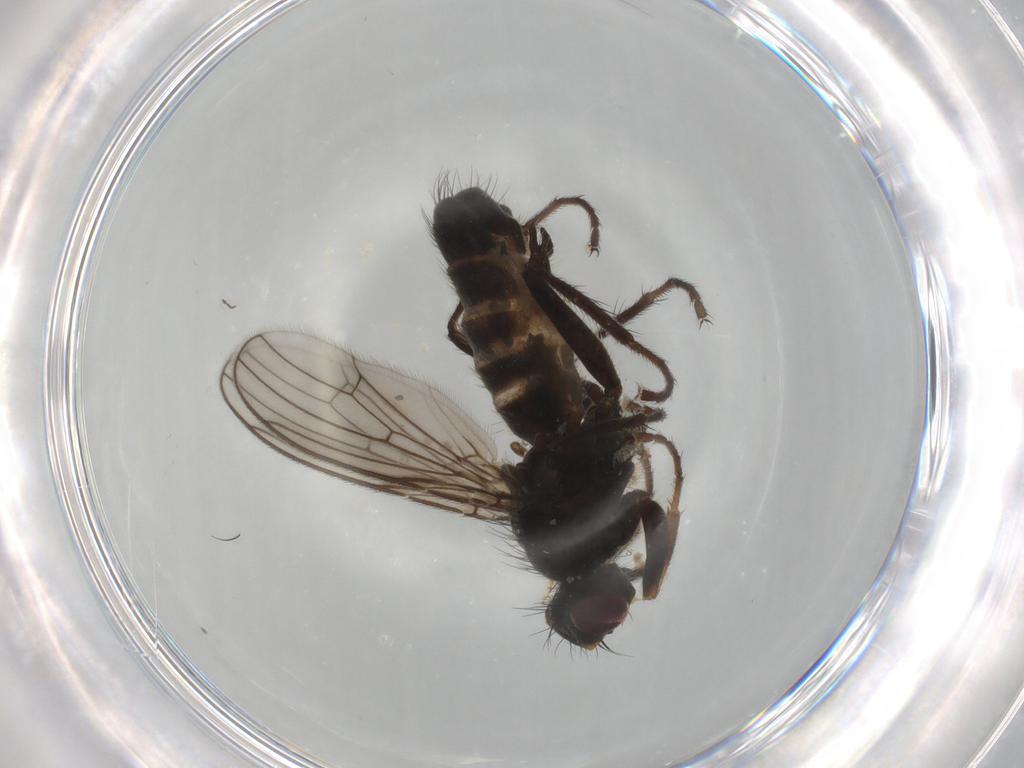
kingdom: Animalia
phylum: Arthropoda
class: Insecta
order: Diptera
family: Scathophagidae
